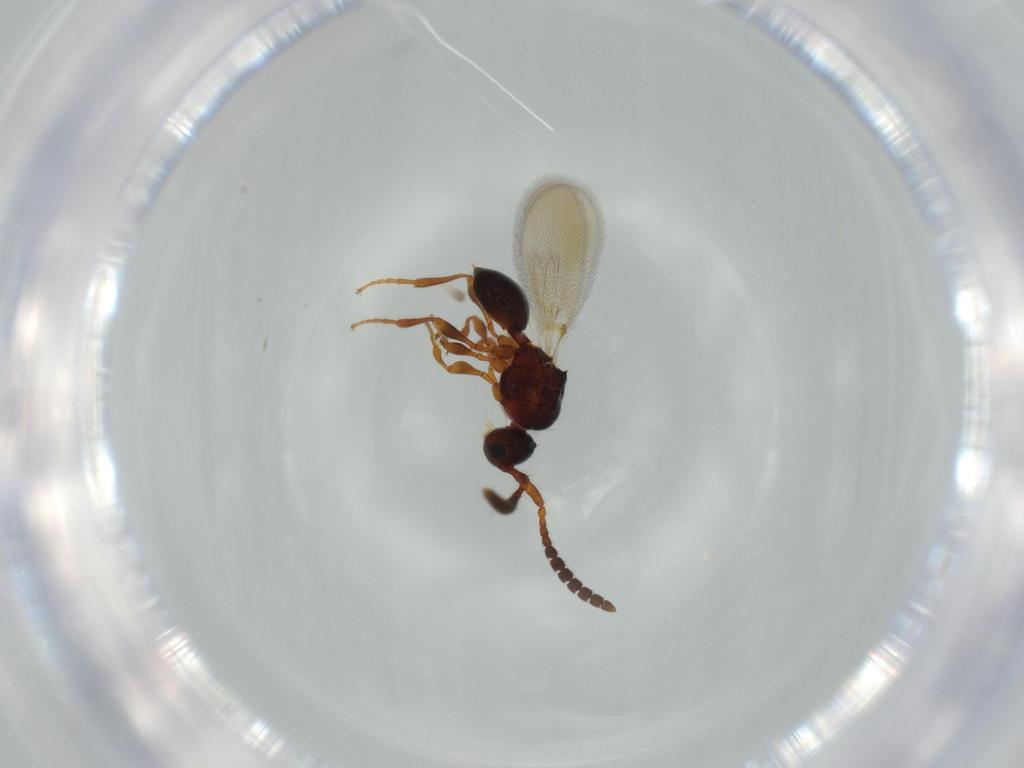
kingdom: Animalia
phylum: Arthropoda
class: Insecta
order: Hymenoptera
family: Diapriidae
